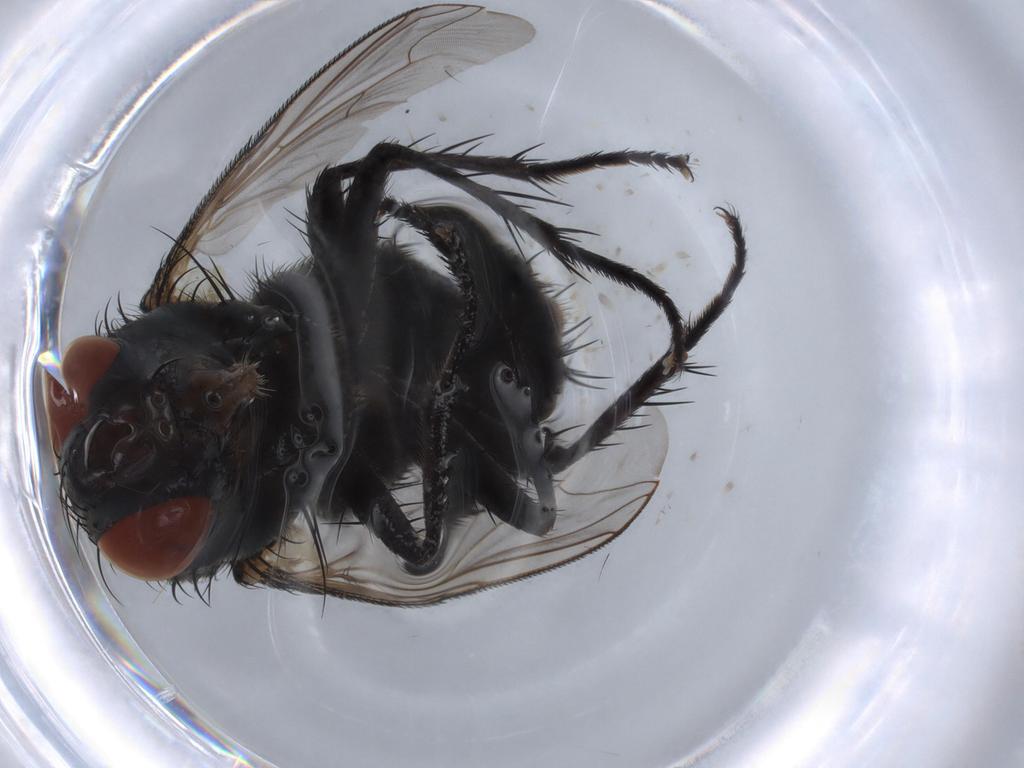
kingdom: Animalia
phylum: Arthropoda
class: Insecta
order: Diptera
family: Sarcophagidae
